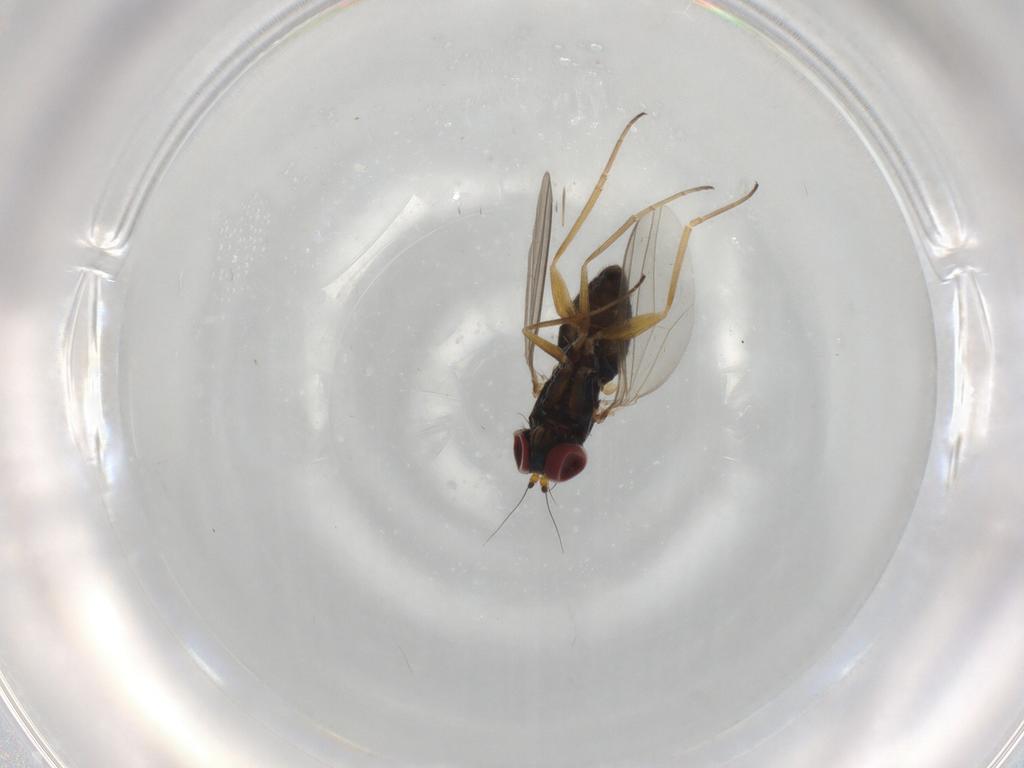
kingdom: Animalia
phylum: Arthropoda
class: Insecta
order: Diptera
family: Dolichopodidae
